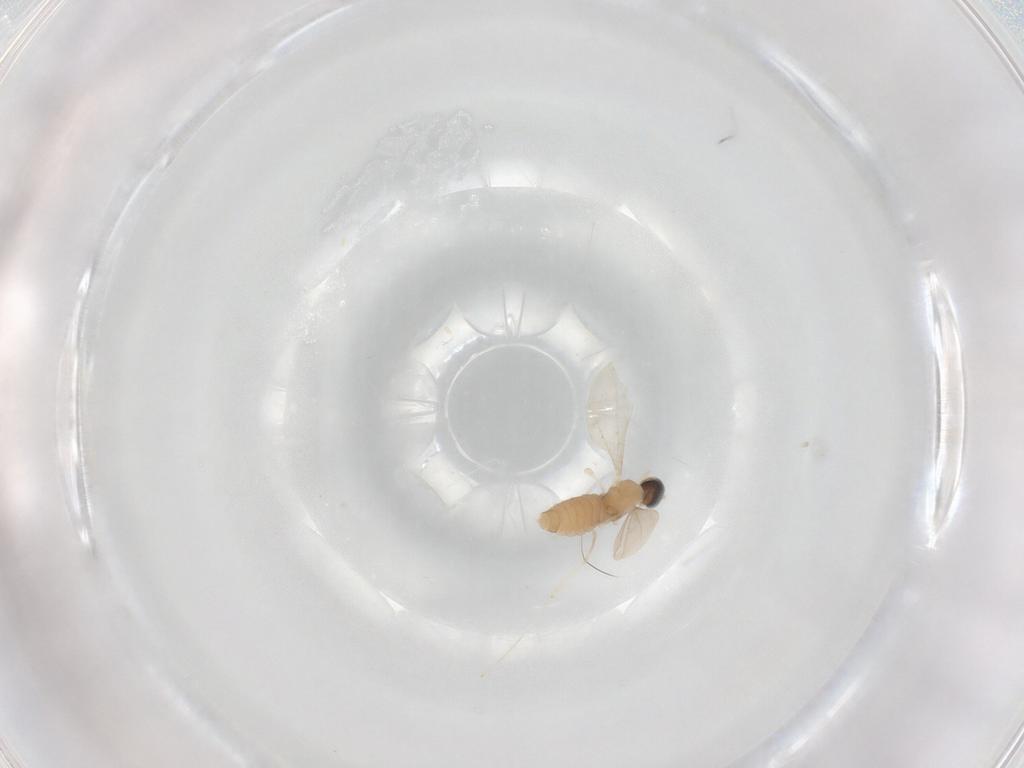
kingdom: Animalia
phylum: Arthropoda
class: Insecta
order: Diptera
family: Cecidomyiidae
